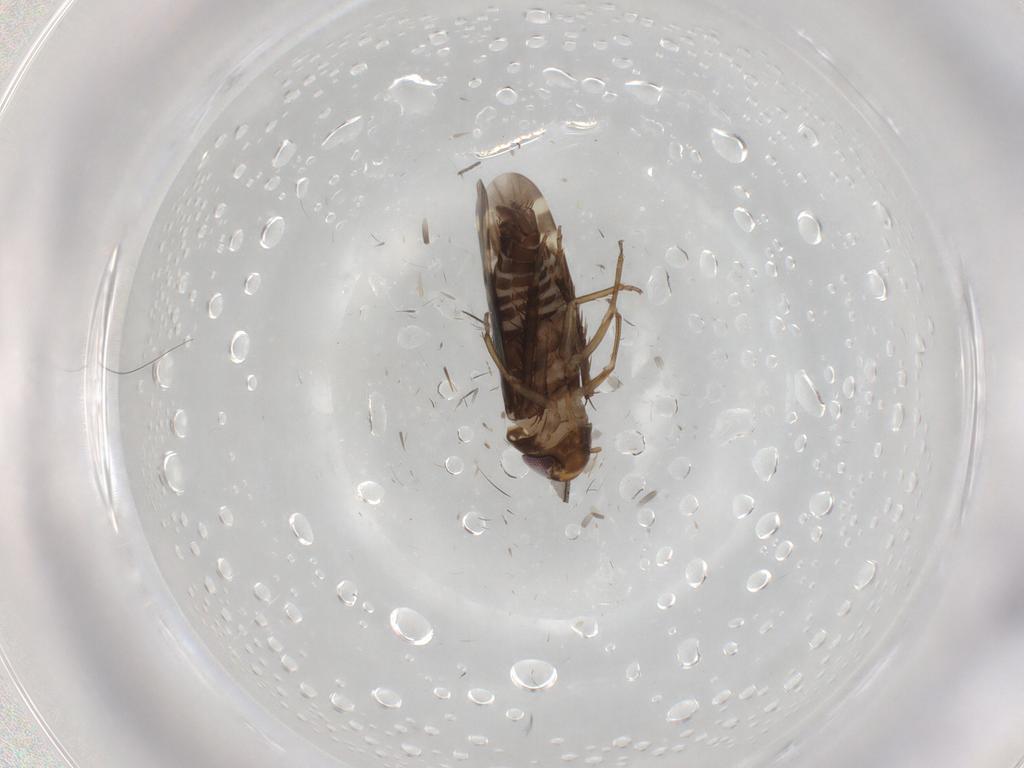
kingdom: Animalia
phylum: Arthropoda
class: Insecta
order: Hemiptera
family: Cicadellidae
